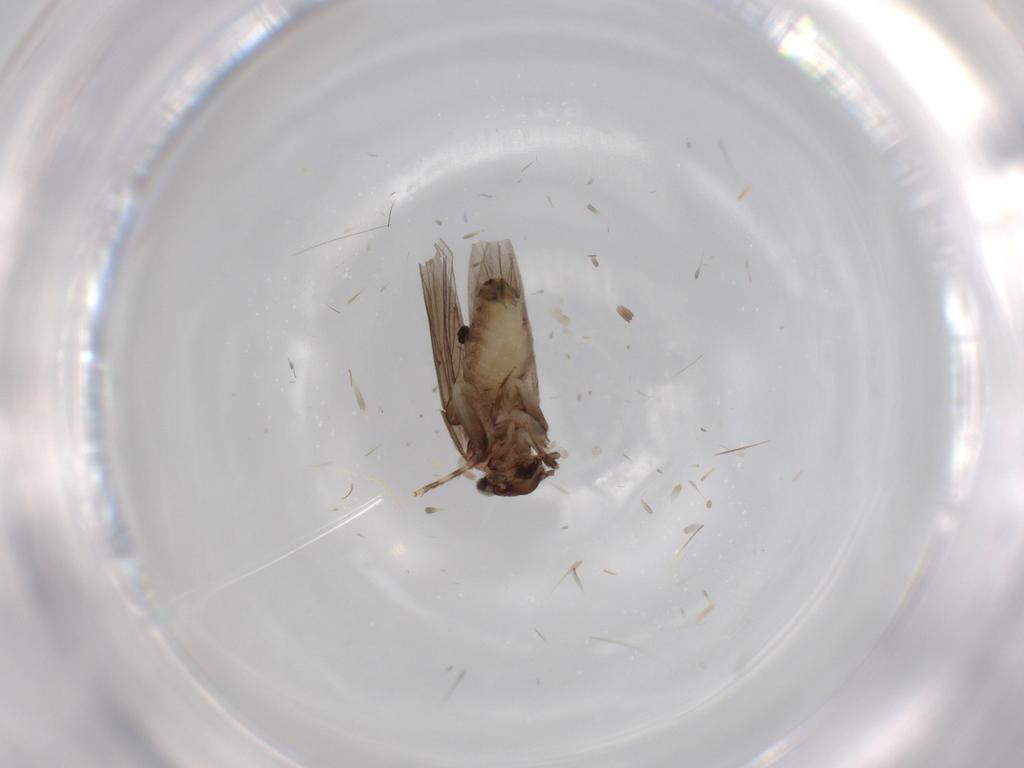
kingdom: Animalia
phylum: Arthropoda
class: Insecta
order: Psocodea
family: Lepidopsocidae
